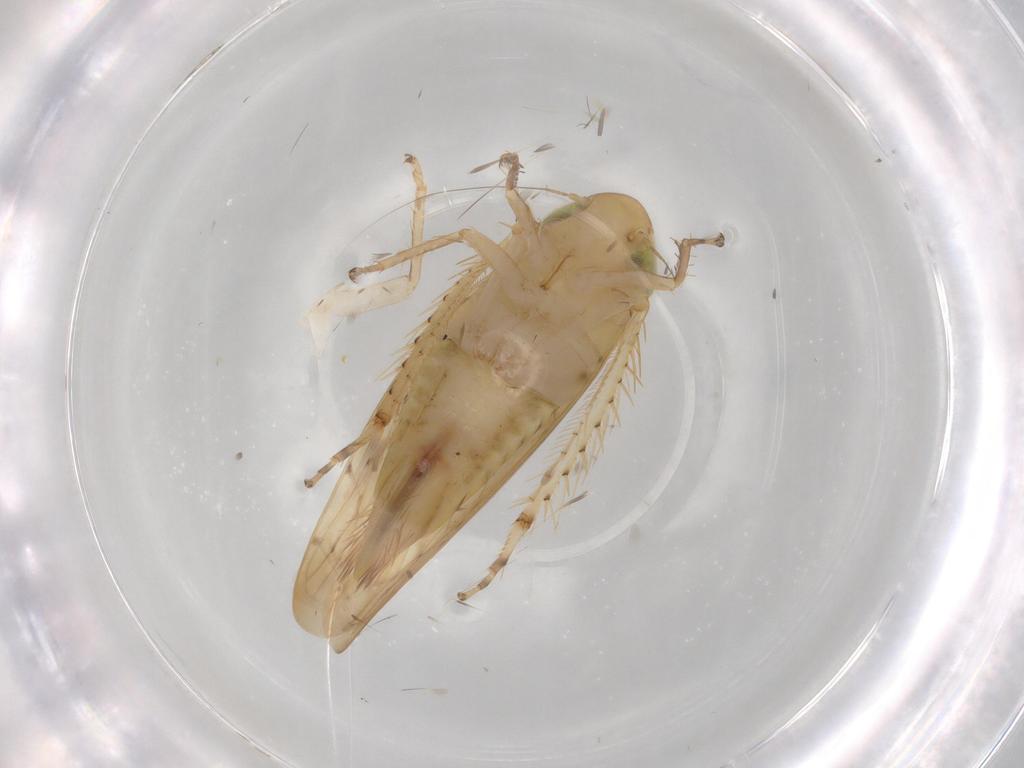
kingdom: Animalia
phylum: Arthropoda
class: Insecta
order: Hemiptera
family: Cicadellidae
